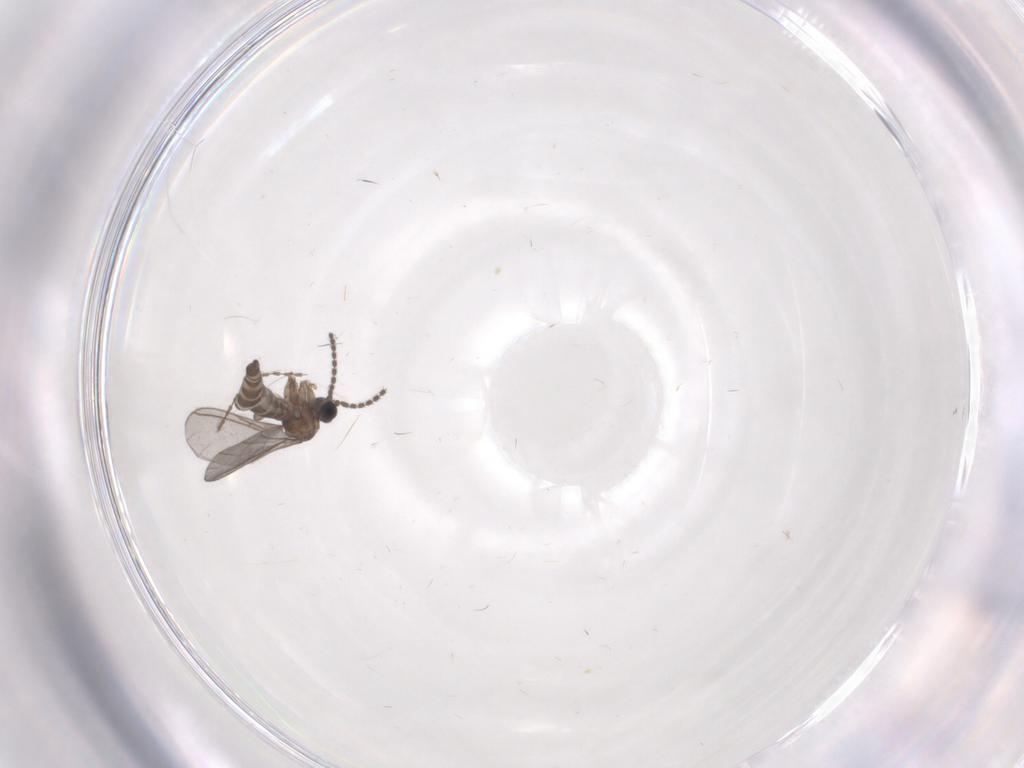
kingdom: Animalia
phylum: Arthropoda
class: Insecta
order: Diptera
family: Sciaridae
